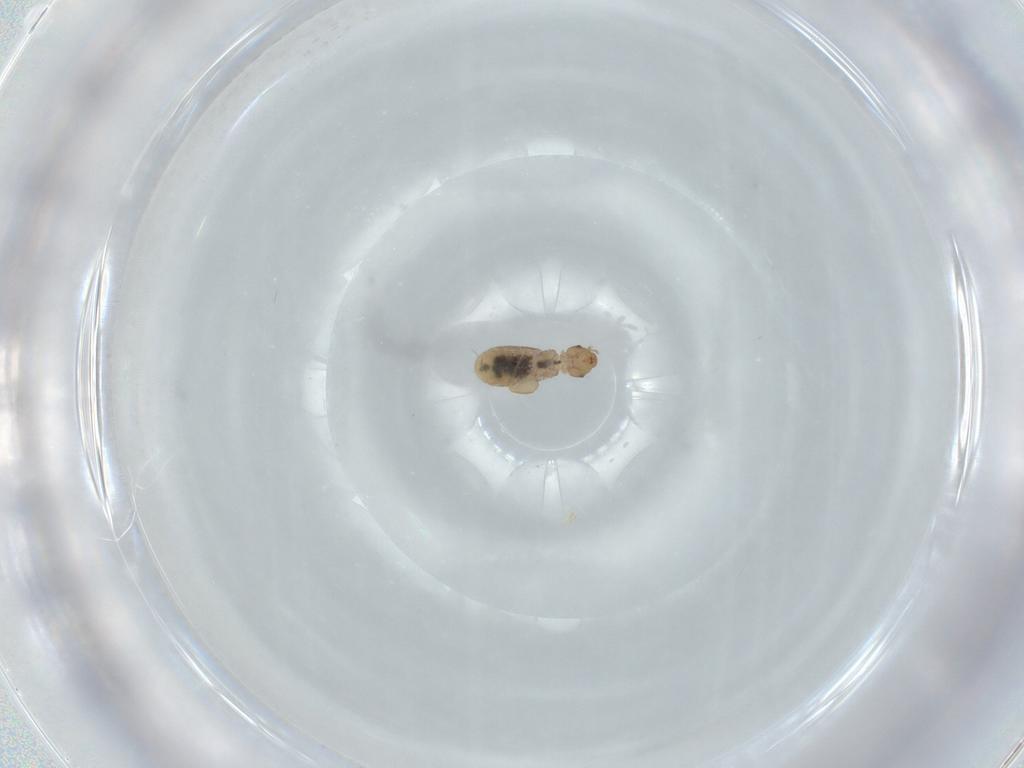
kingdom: Animalia
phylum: Arthropoda
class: Insecta
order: Psocodea
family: Liposcelididae
